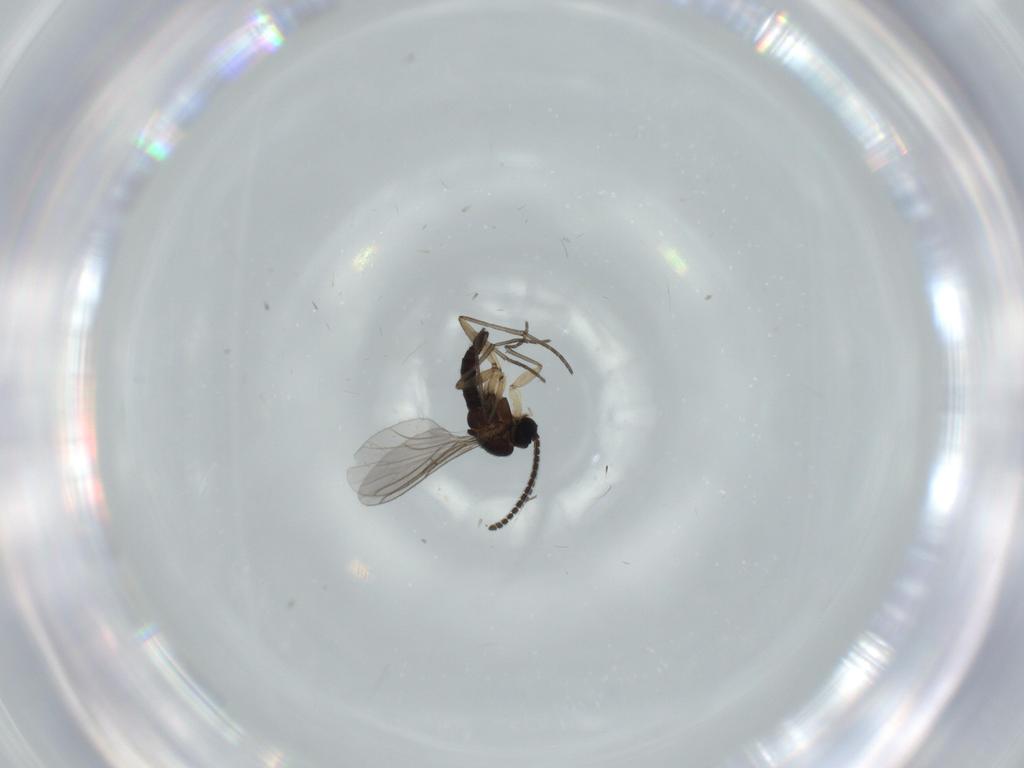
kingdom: Animalia
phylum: Arthropoda
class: Insecta
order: Diptera
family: Sciaridae
